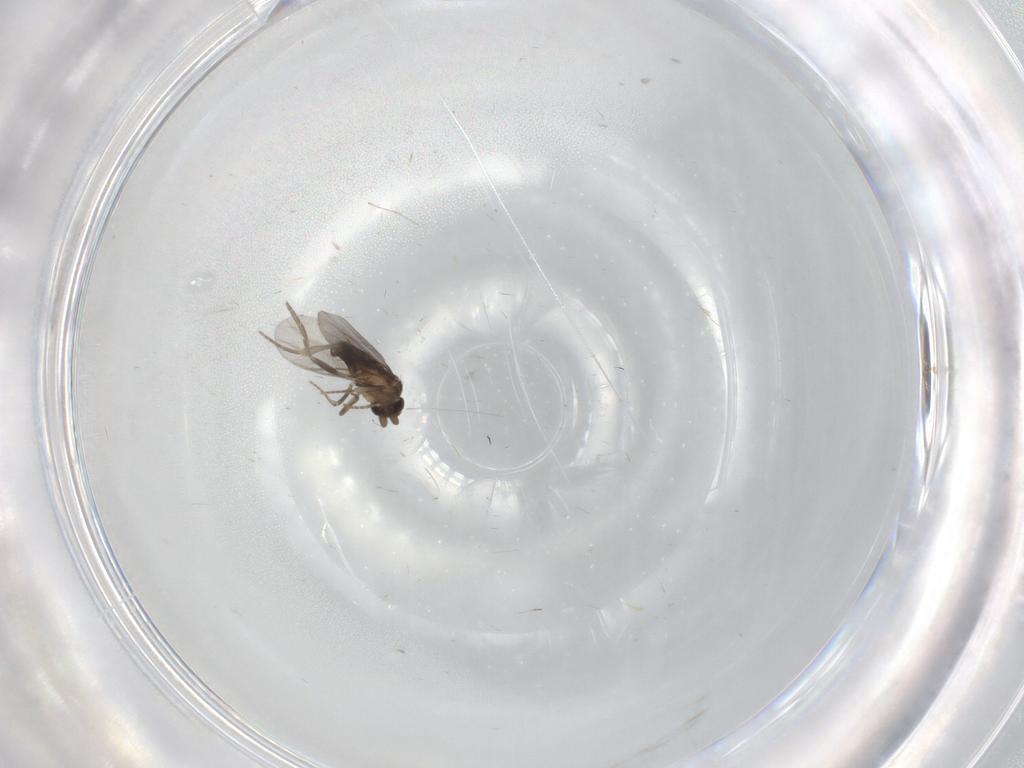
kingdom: Animalia
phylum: Arthropoda
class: Insecta
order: Diptera
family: Cecidomyiidae
